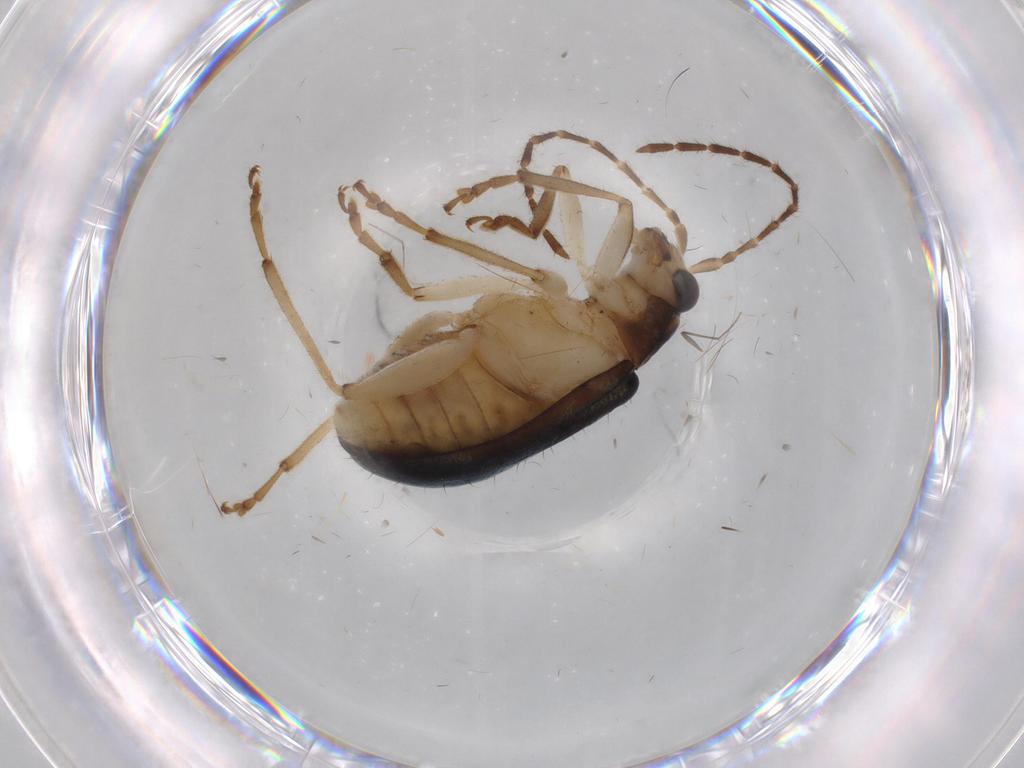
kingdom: Animalia
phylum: Arthropoda
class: Insecta
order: Coleoptera
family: Chrysomelidae
